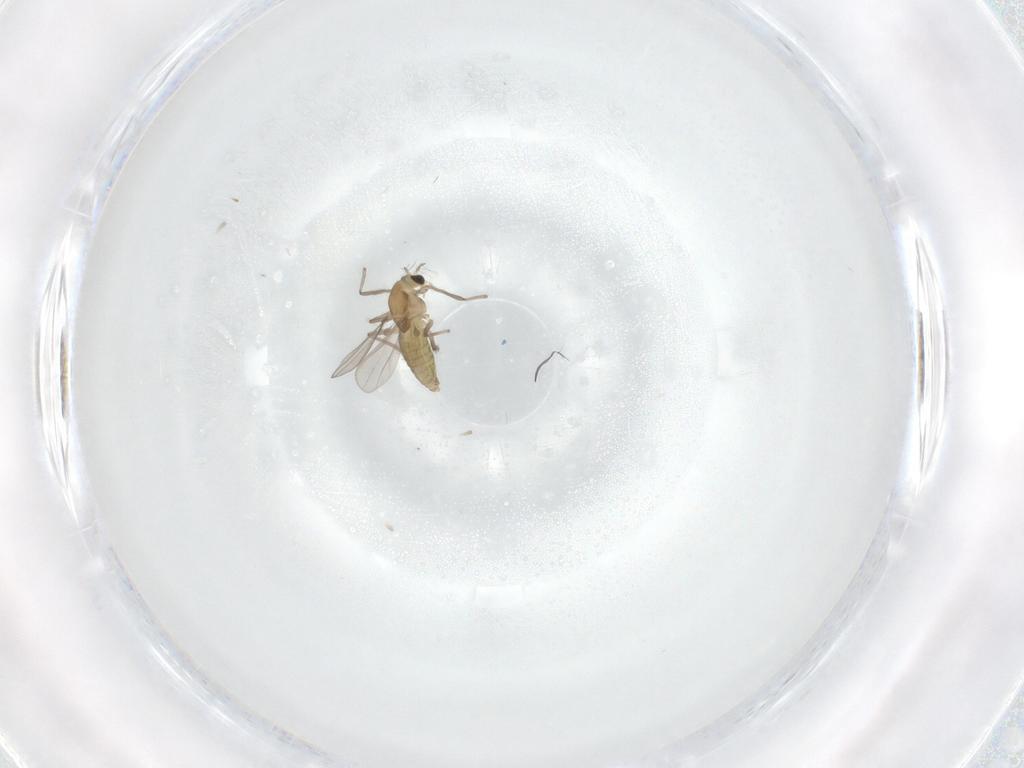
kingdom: Animalia
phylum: Arthropoda
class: Insecta
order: Diptera
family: Chironomidae
